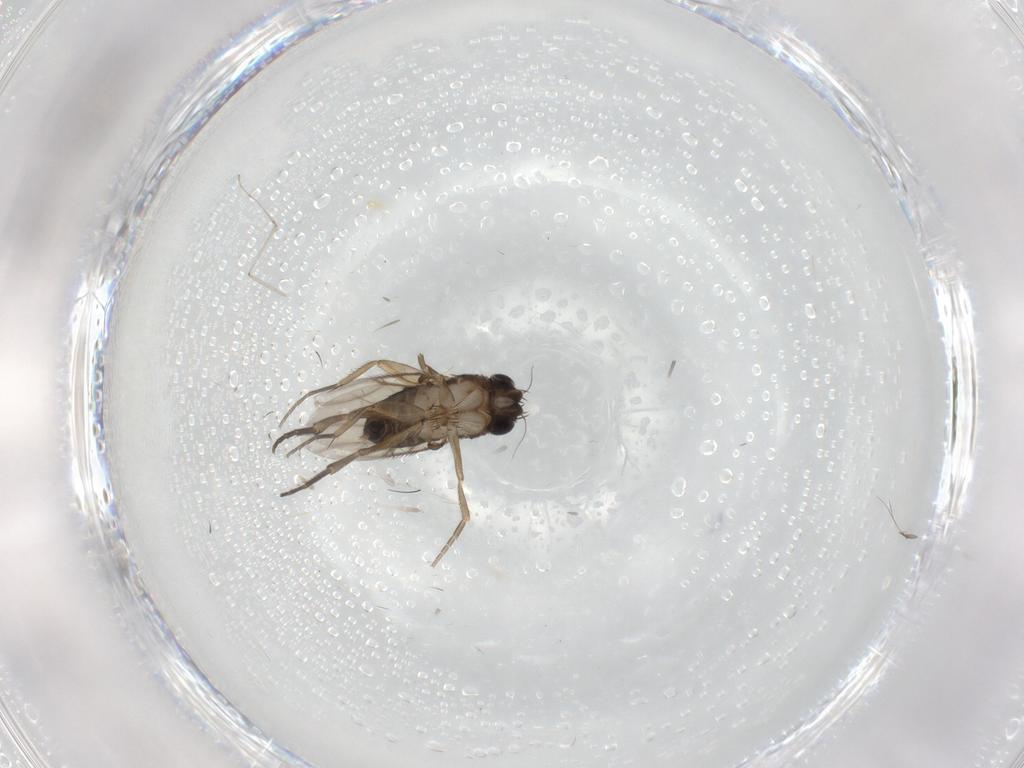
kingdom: Animalia
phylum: Arthropoda
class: Insecta
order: Diptera
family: Phoridae
